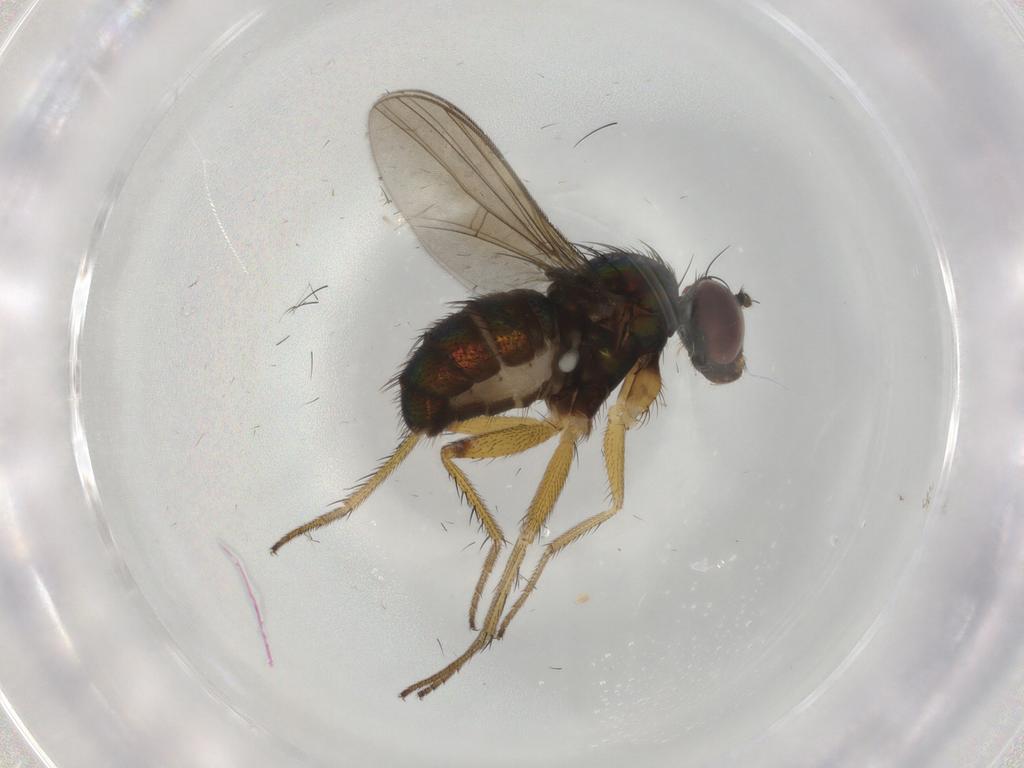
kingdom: Animalia
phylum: Arthropoda
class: Insecta
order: Diptera
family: Dolichopodidae
